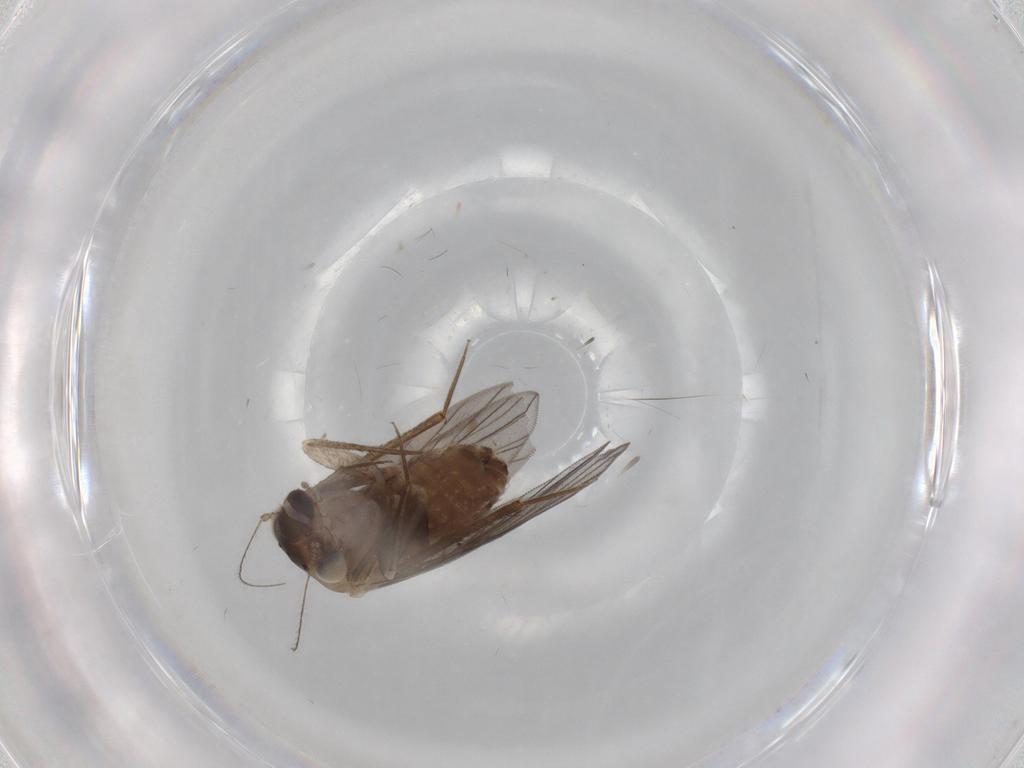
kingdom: Animalia
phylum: Arthropoda
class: Insecta
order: Psocodea
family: Lepidopsocidae
